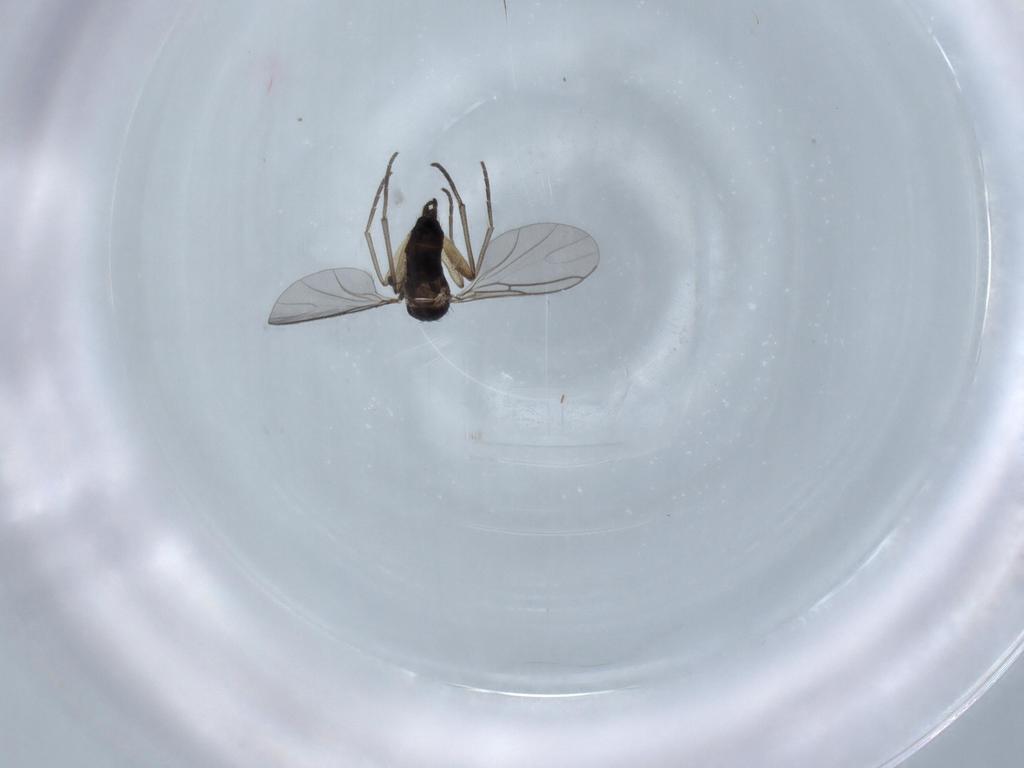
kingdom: Animalia
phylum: Arthropoda
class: Insecta
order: Diptera
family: Sciaridae
